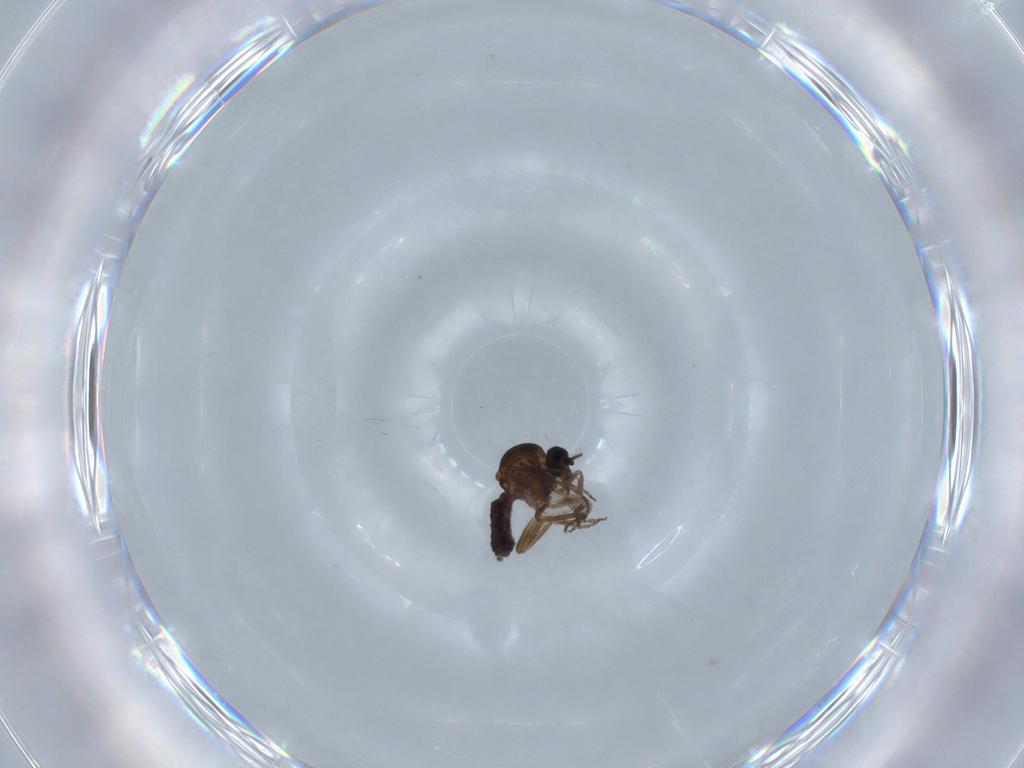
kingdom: Animalia
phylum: Arthropoda
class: Insecta
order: Diptera
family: Chironomidae
